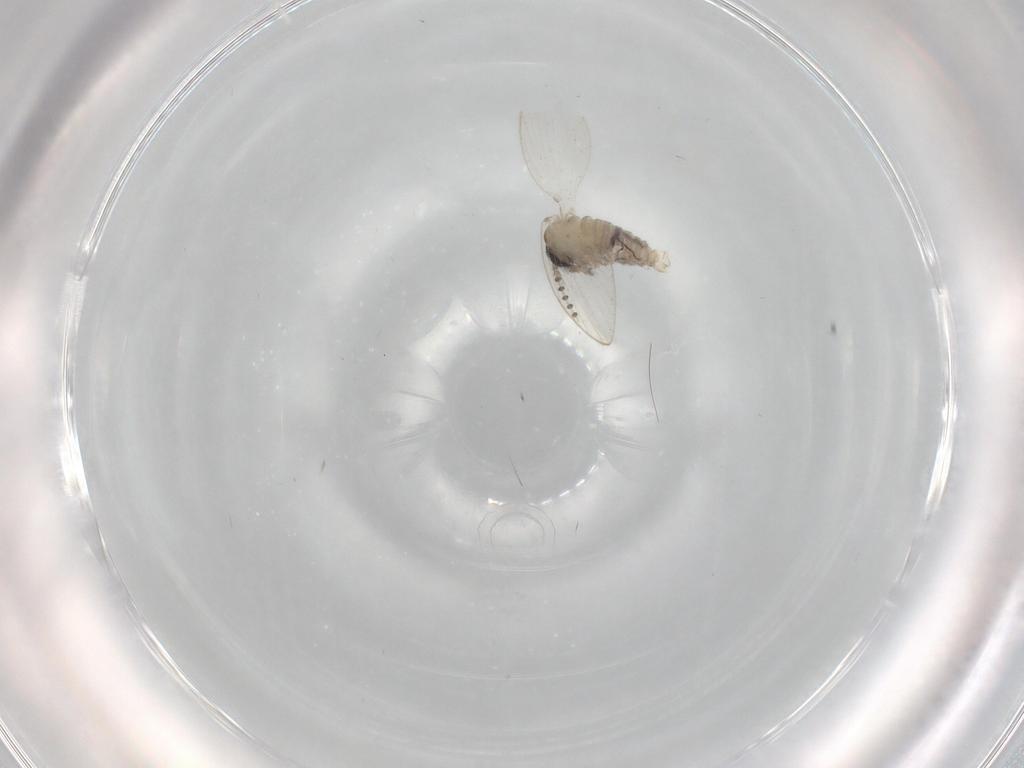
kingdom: Animalia
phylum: Arthropoda
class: Insecta
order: Diptera
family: Psychodidae
